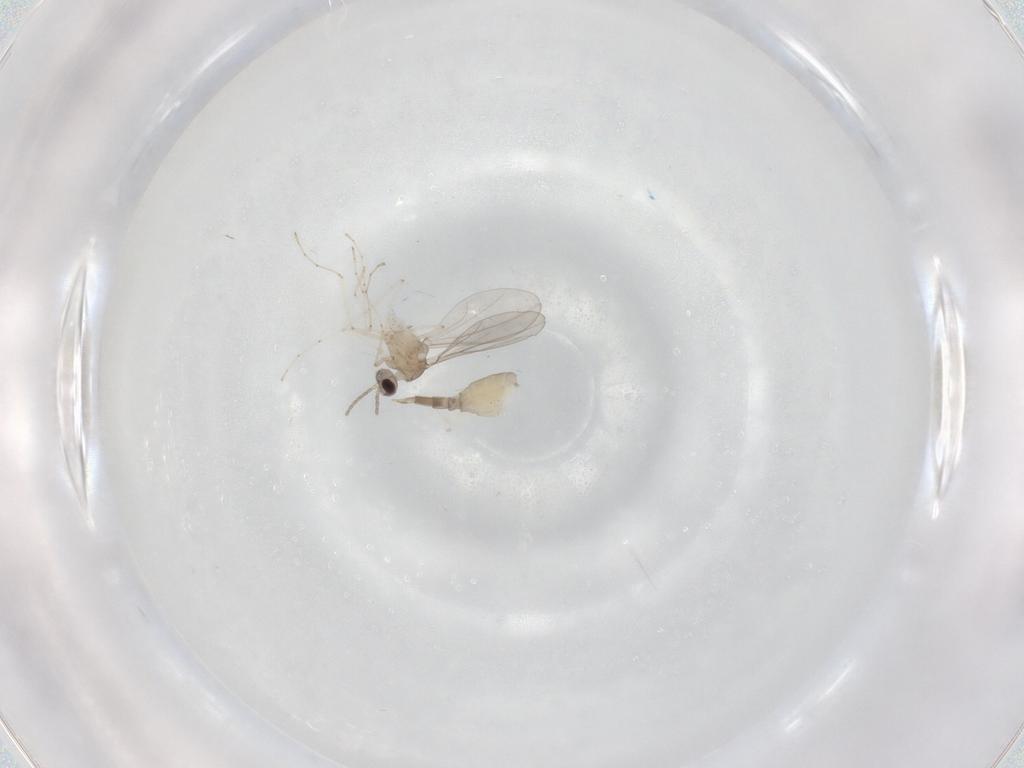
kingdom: Animalia
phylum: Arthropoda
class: Insecta
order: Diptera
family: Cecidomyiidae
